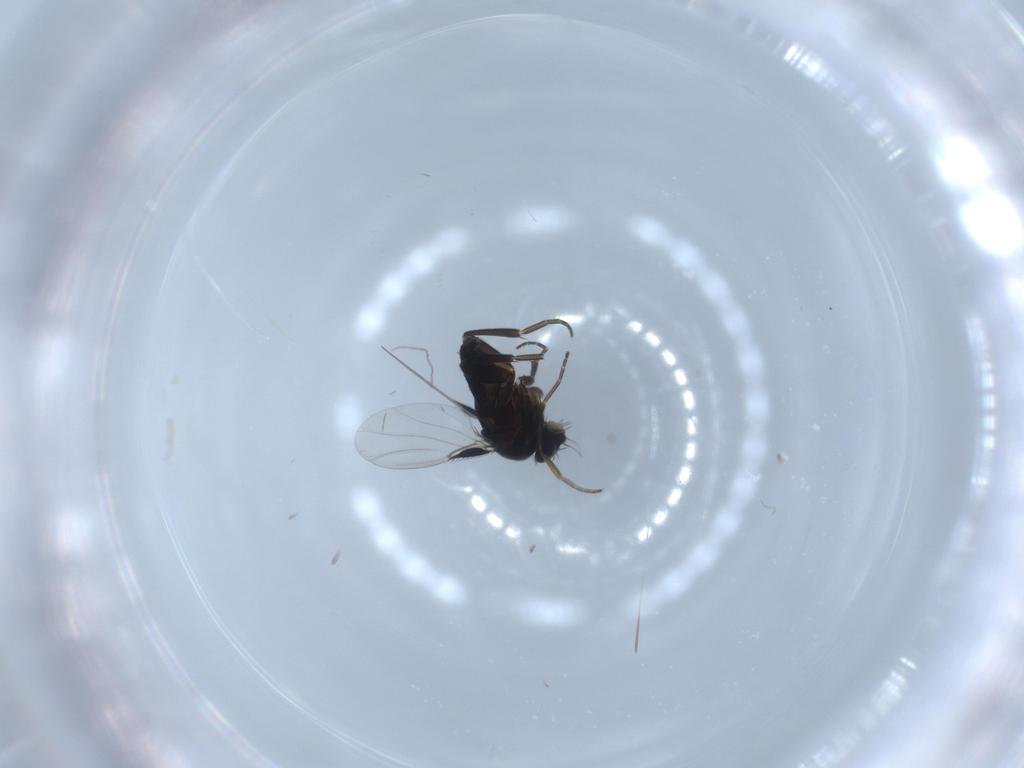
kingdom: Animalia
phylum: Arthropoda
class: Insecta
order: Diptera
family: Phoridae
